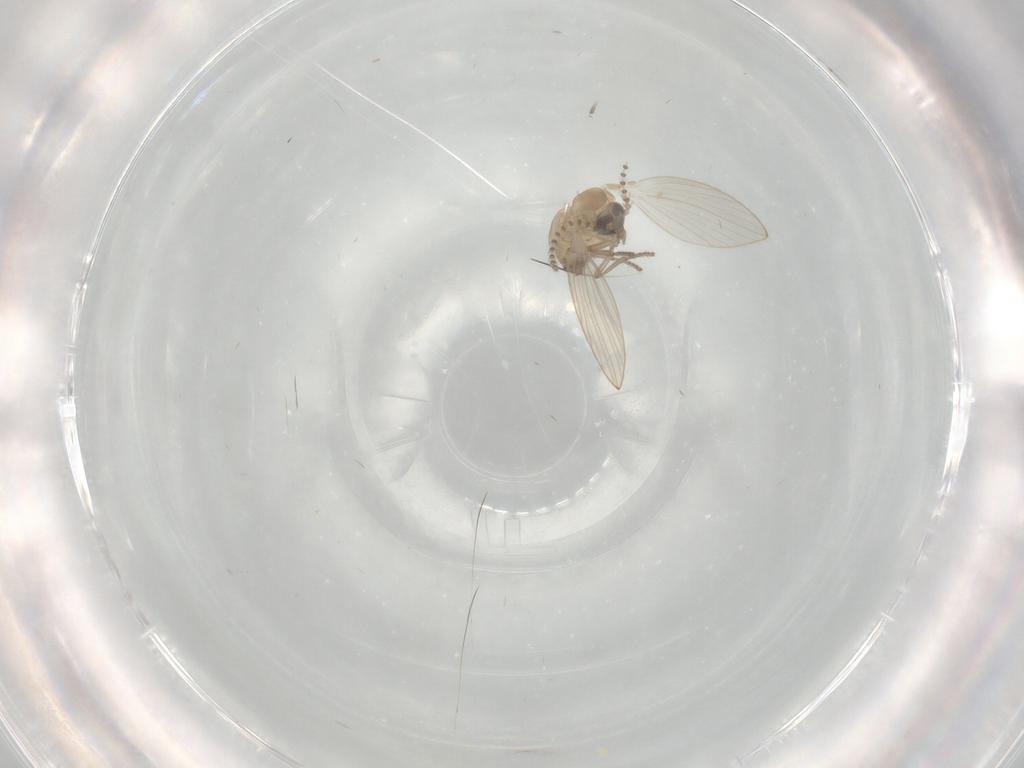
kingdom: Animalia
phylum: Arthropoda
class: Insecta
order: Diptera
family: Psychodidae
